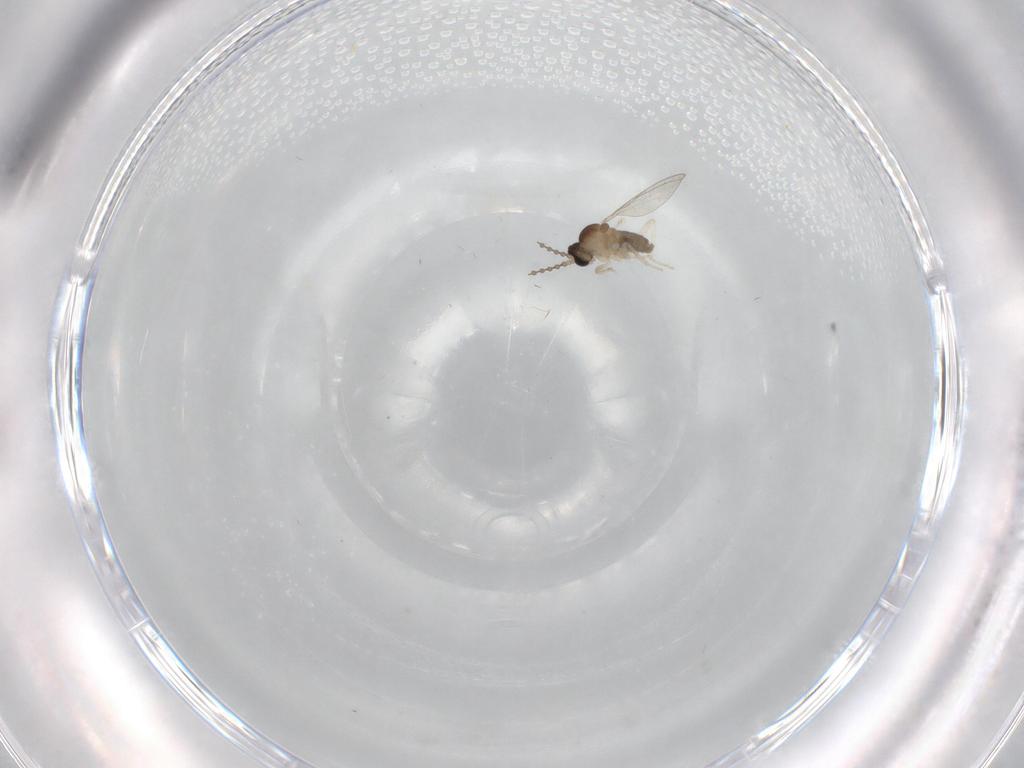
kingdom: Animalia
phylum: Arthropoda
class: Insecta
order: Diptera
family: Cecidomyiidae
